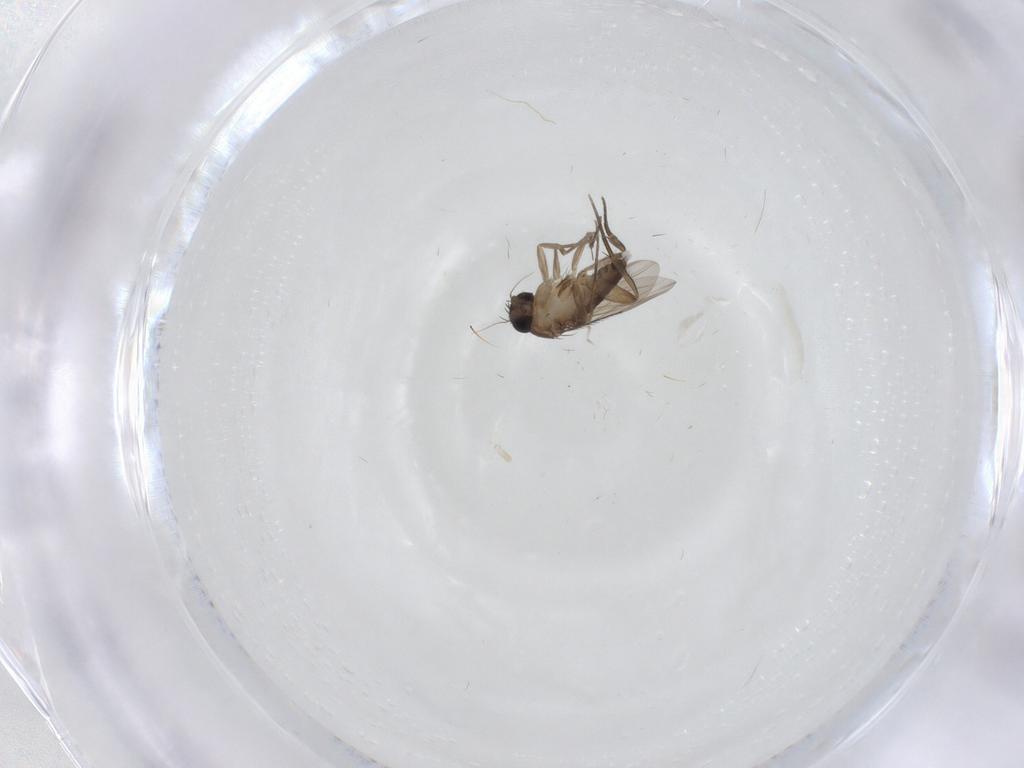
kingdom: Animalia
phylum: Arthropoda
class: Insecta
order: Diptera
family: Phoridae
